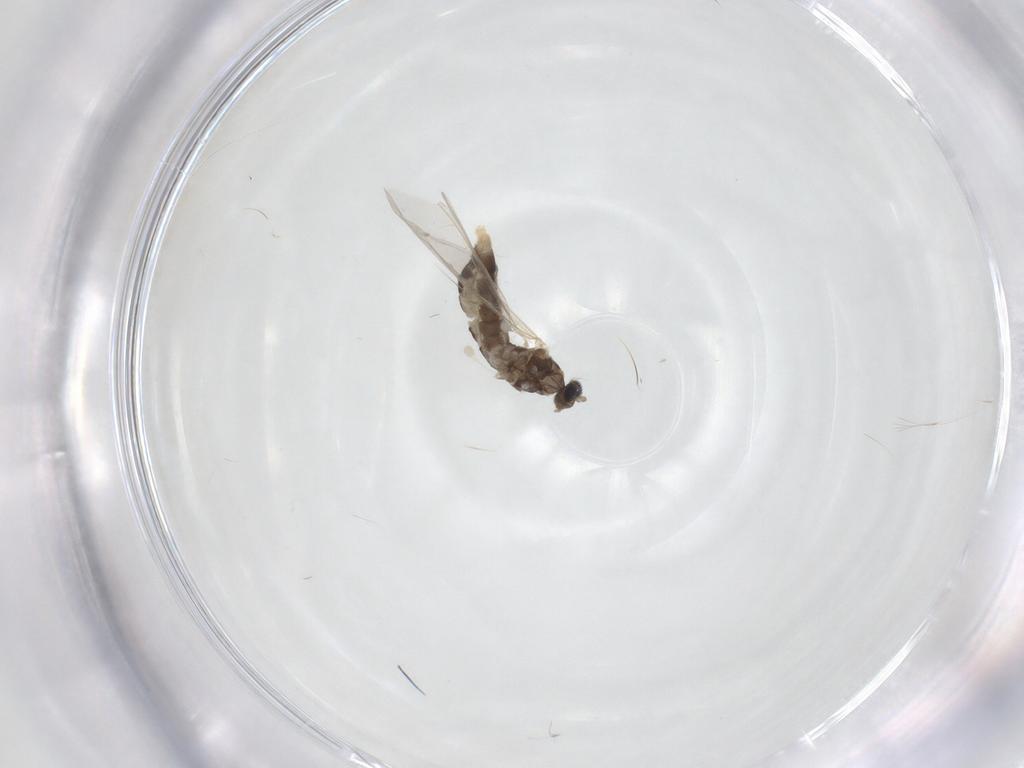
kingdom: Animalia
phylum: Arthropoda
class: Insecta
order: Diptera
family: Cecidomyiidae
